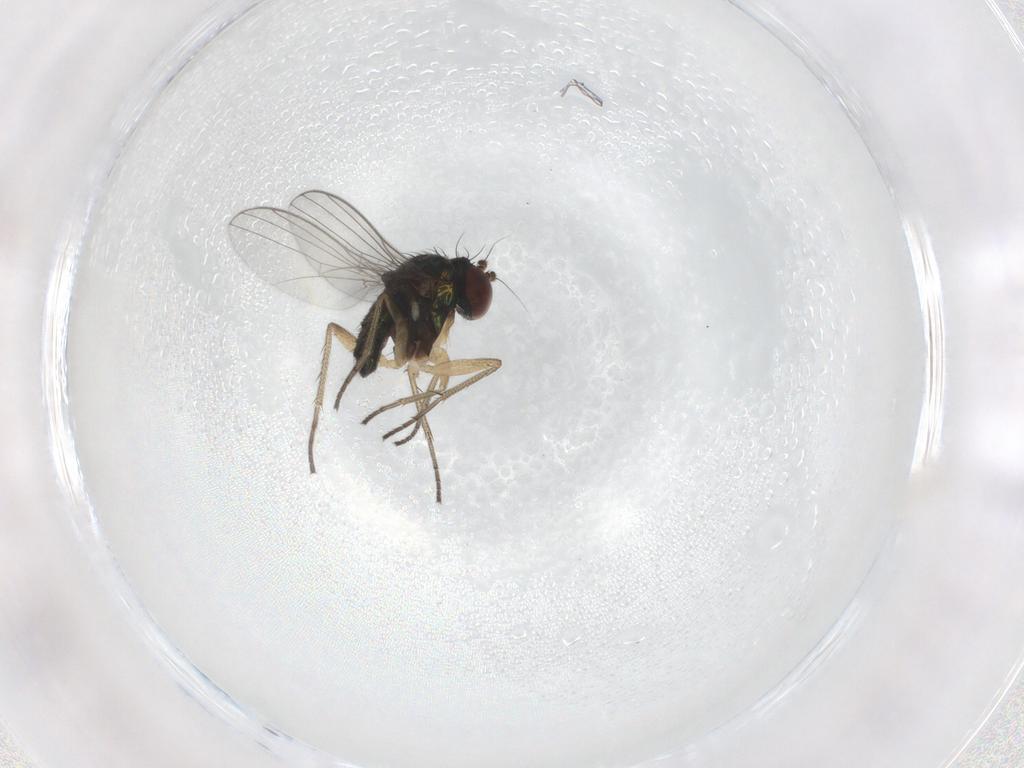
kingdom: Animalia
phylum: Arthropoda
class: Insecta
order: Diptera
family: Dolichopodidae
